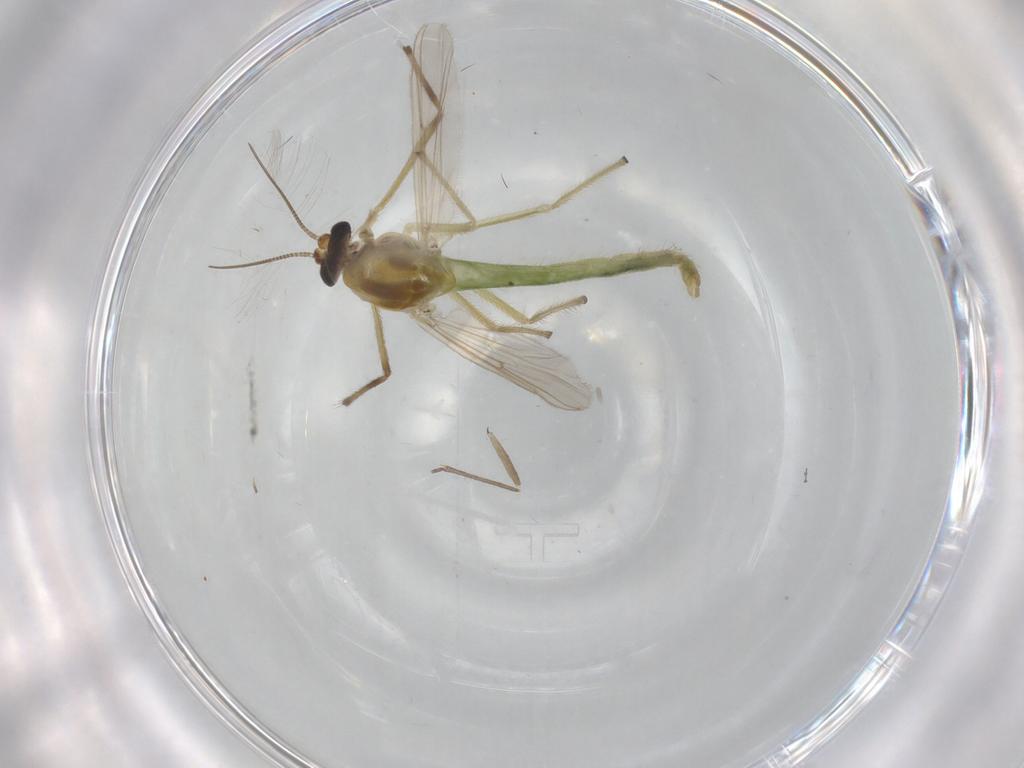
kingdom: Animalia
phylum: Arthropoda
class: Insecta
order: Diptera
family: Chironomidae
